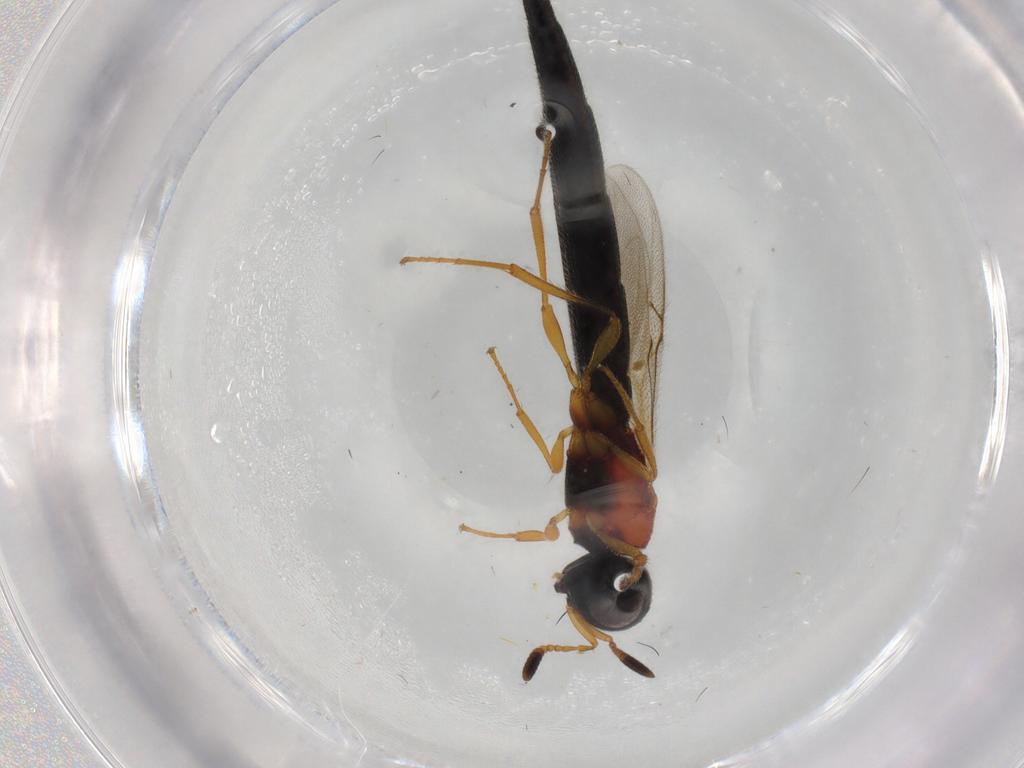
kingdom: Animalia
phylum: Arthropoda
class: Insecta
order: Hymenoptera
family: Scelionidae
